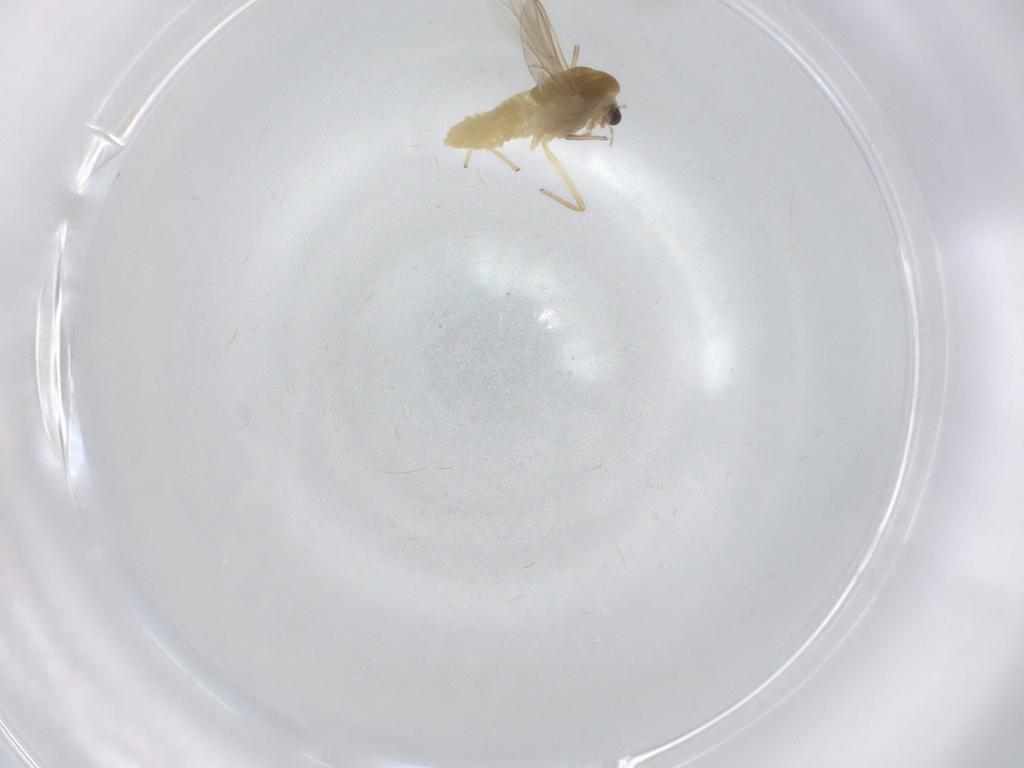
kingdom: Animalia
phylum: Arthropoda
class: Insecta
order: Diptera
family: Chironomidae
